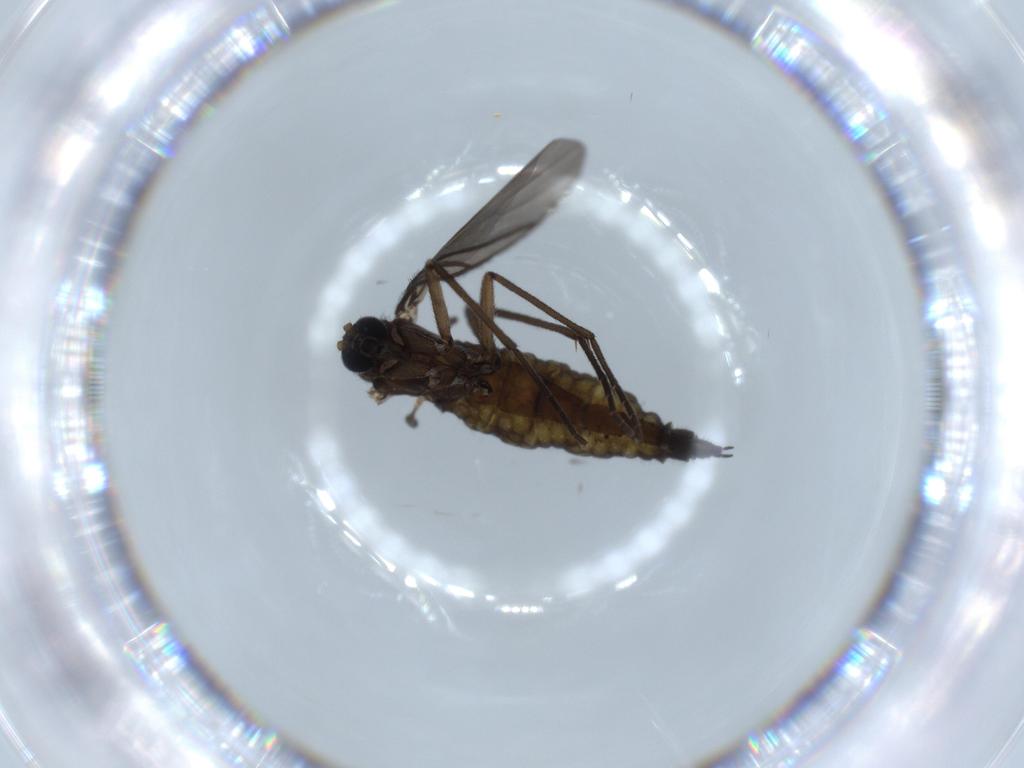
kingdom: Animalia
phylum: Arthropoda
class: Insecta
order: Diptera
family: Sciaridae
